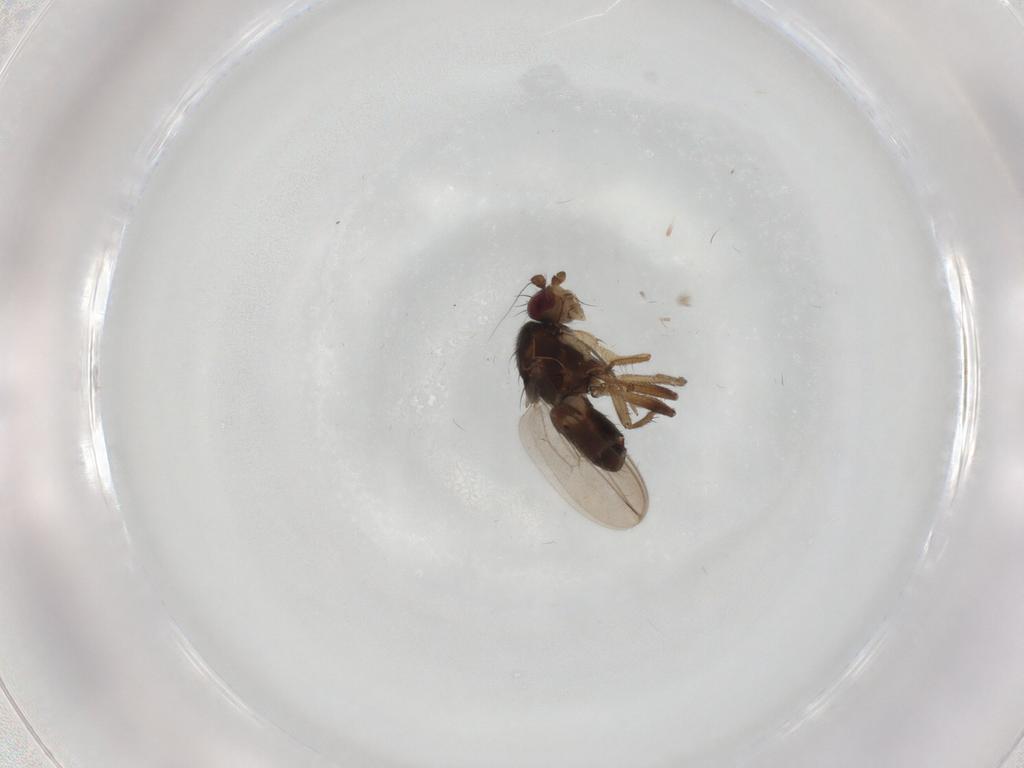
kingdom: Animalia
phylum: Arthropoda
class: Insecta
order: Diptera
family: Sphaeroceridae
